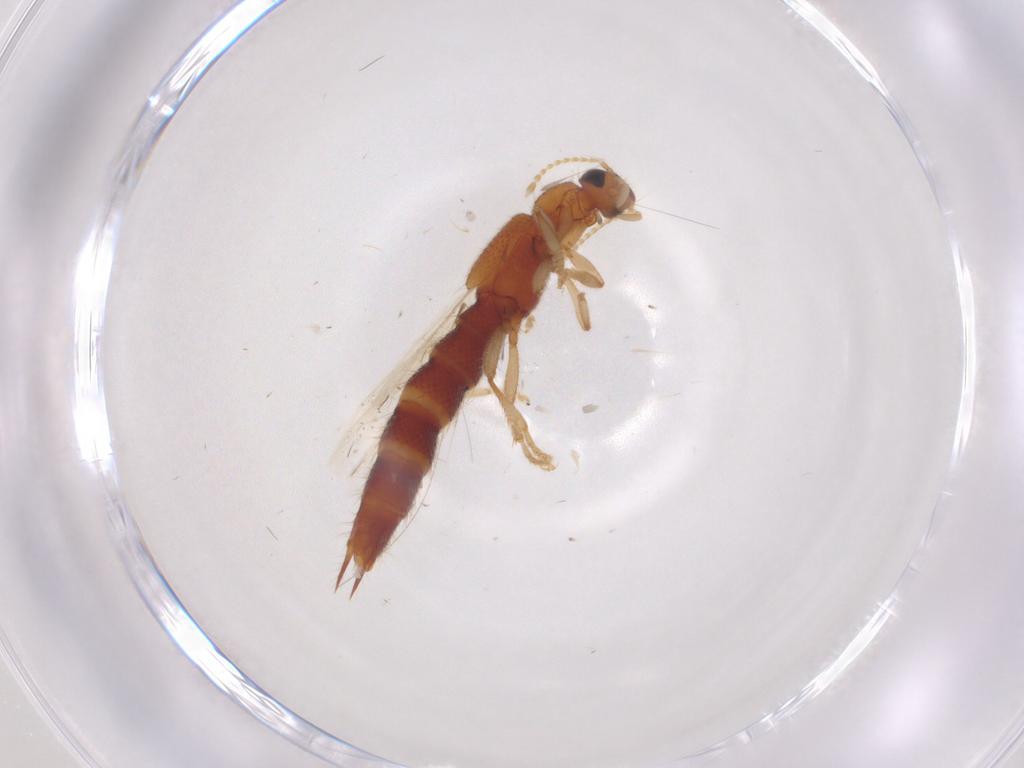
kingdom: Animalia
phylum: Arthropoda
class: Insecta
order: Coleoptera
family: Staphylinidae
